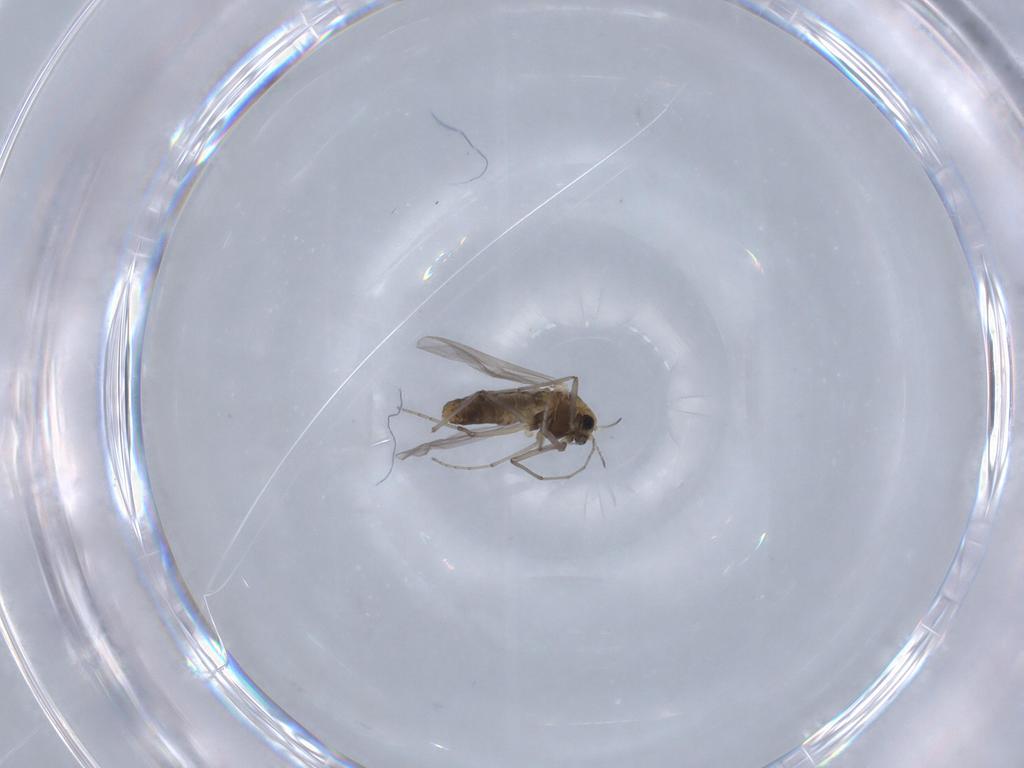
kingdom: Animalia
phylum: Arthropoda
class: Insecta
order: Diptera
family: Chironomidae
